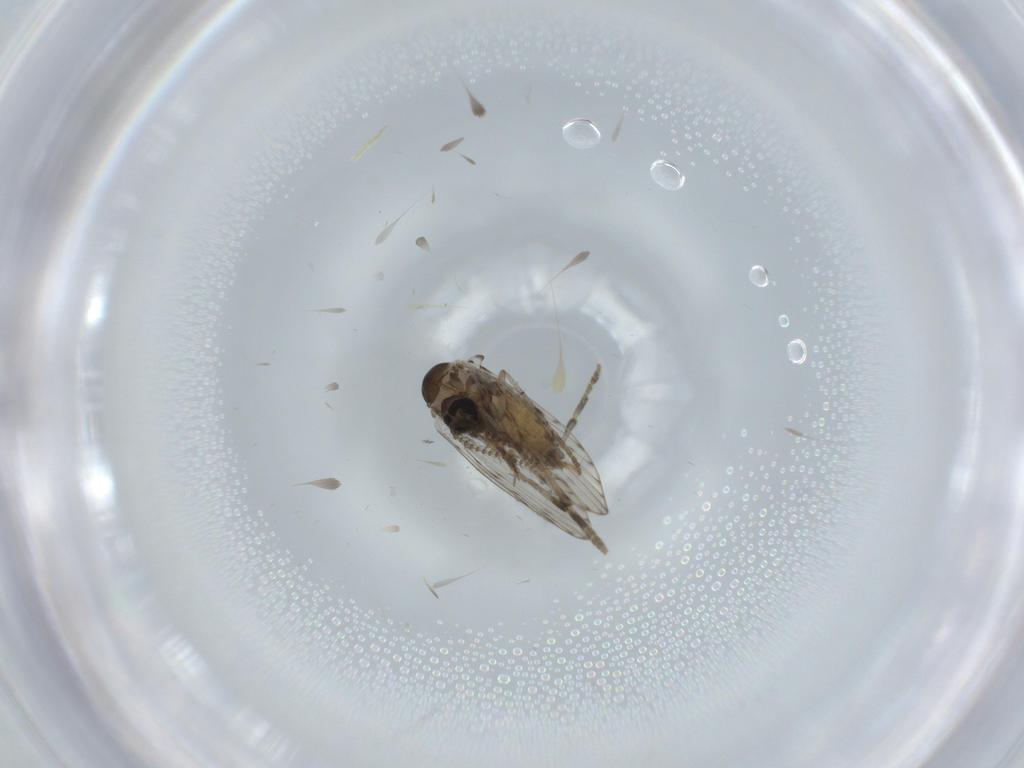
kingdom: Animalia
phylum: Arthropoda
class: Insecta
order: Diptera
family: Psychodidae
